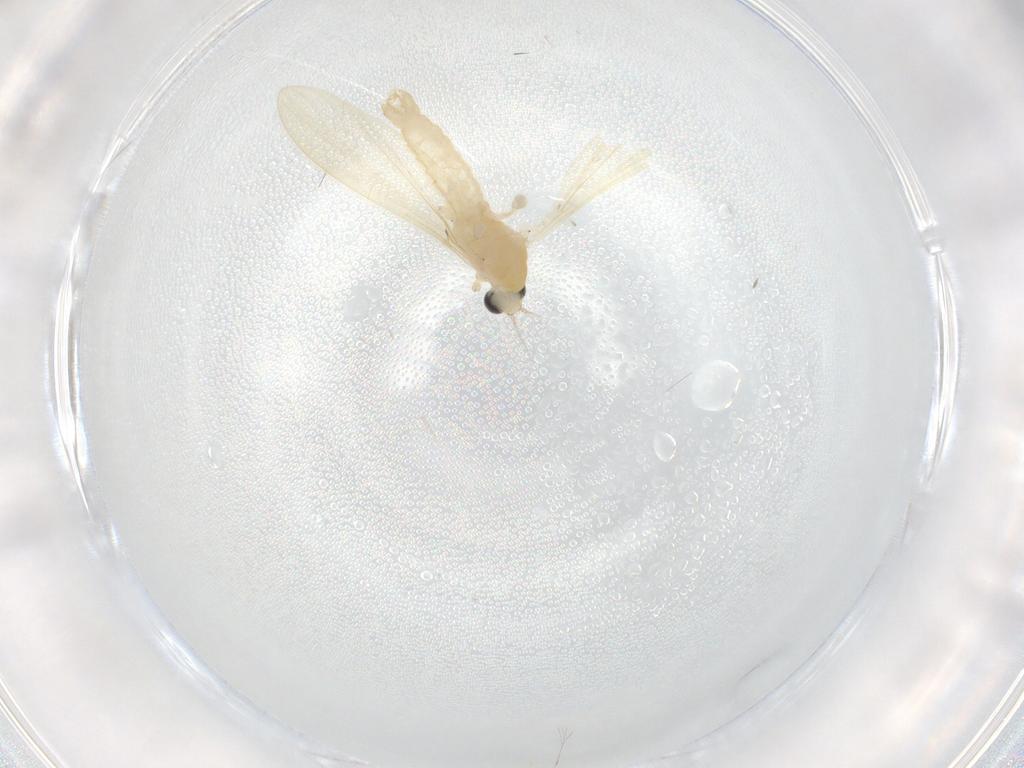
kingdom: Animalia
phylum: Arthropoda
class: Insecta
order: Diptera
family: Limoniidae
